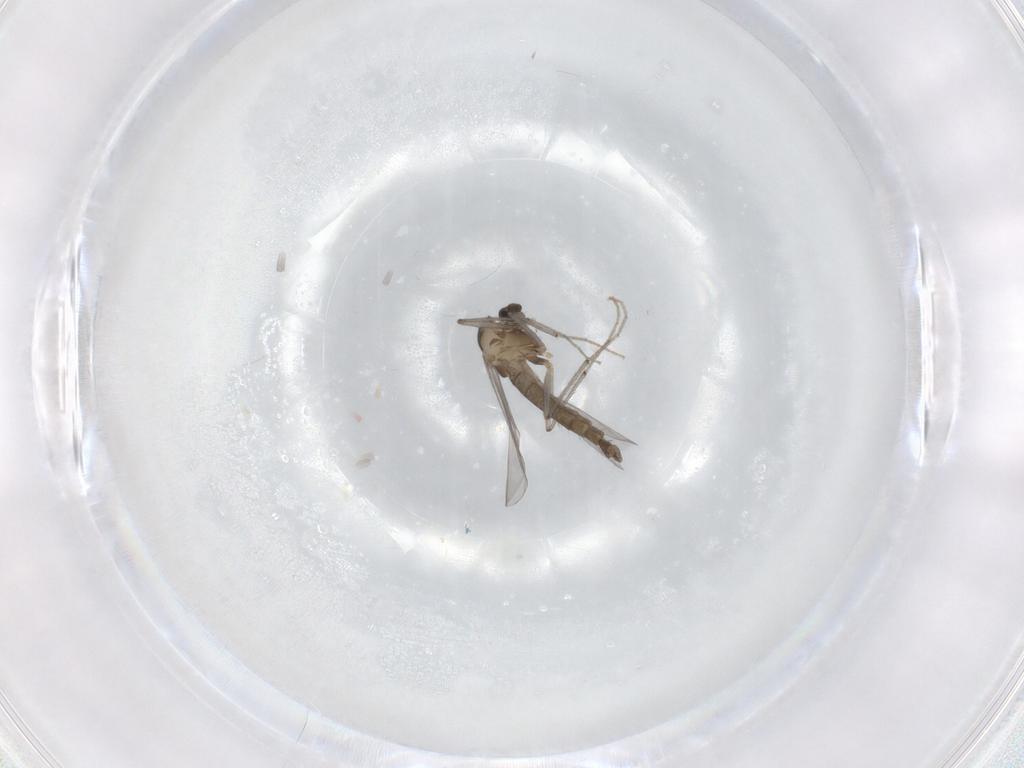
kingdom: Animalia
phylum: Arthropoda
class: Insecta
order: Diptera
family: Chironomidae
